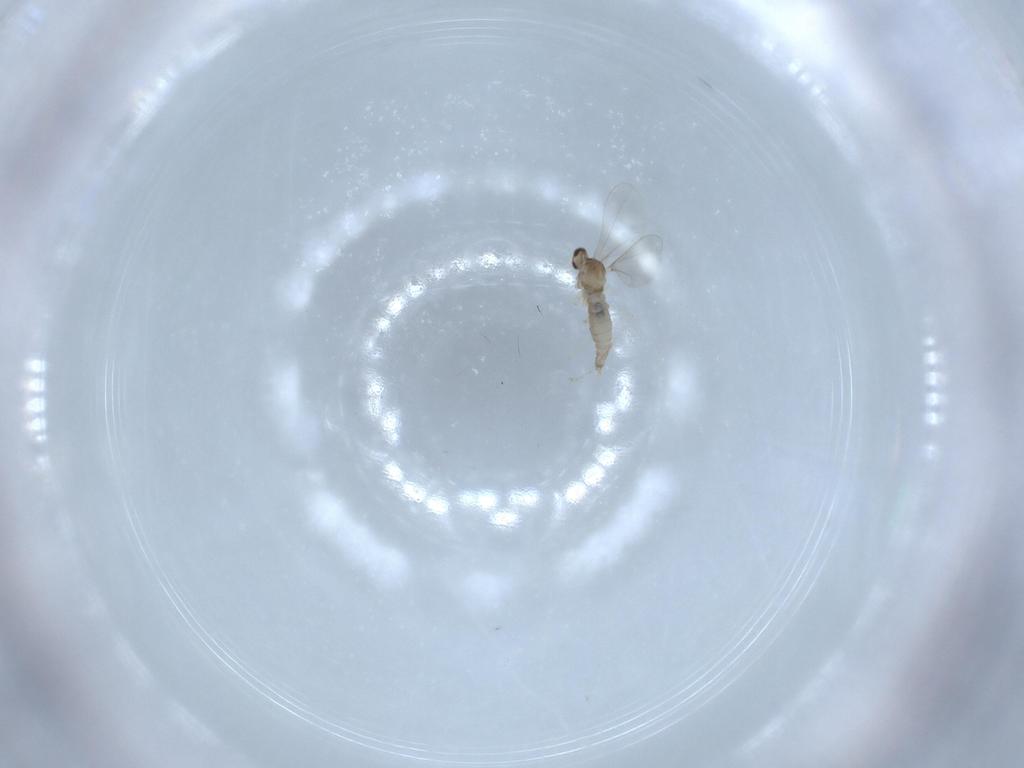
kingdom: Animalia
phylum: Arthropoda
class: Insecta
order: Diptera
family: Cecidomyiidae
